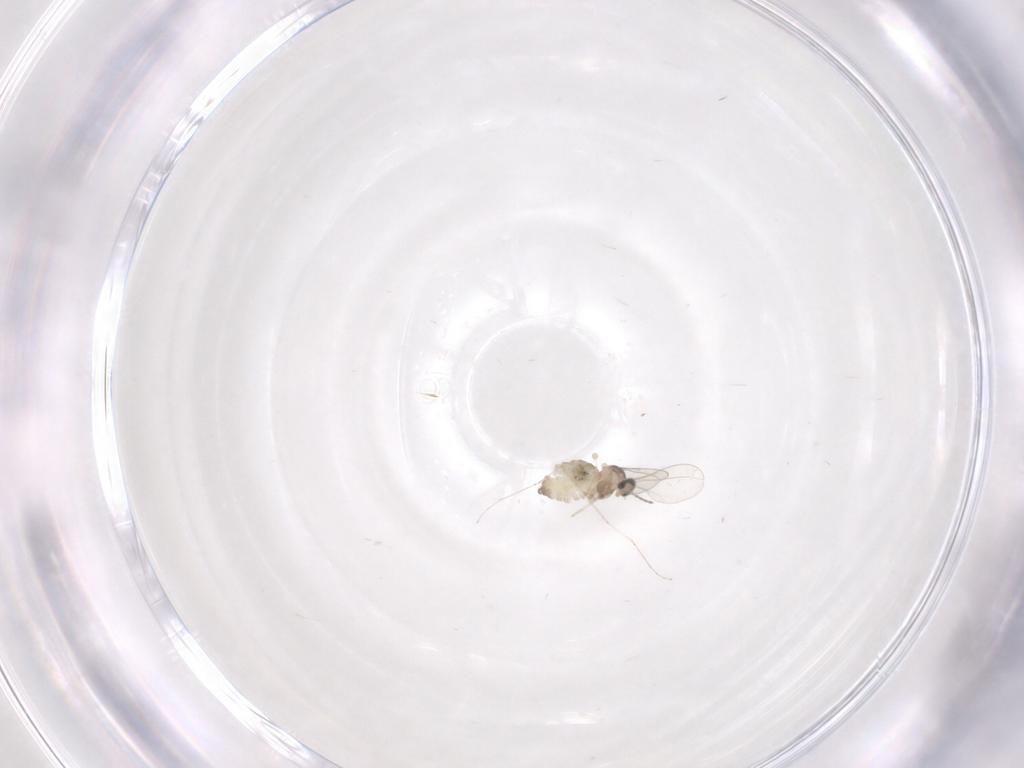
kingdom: Animalia
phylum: Arthropoda
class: Insecta
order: Diptera
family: Cecidomyiidae
